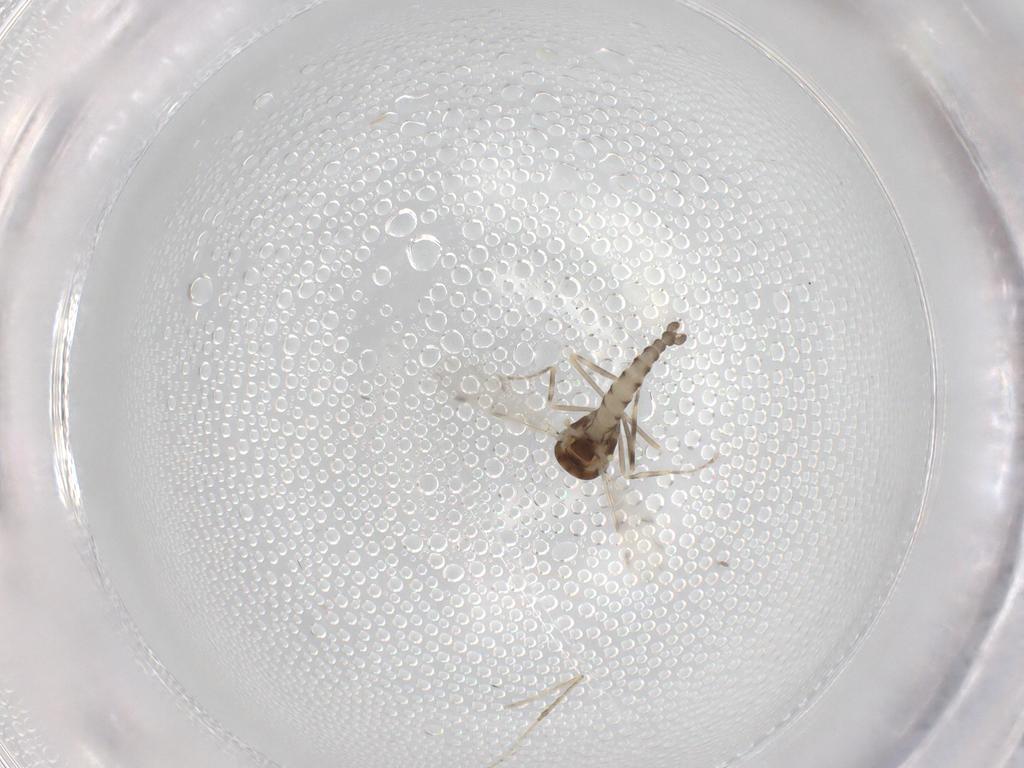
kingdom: Animalia
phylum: Arthropoda
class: Insecta
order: Diptera
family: Ceratopogonidae
